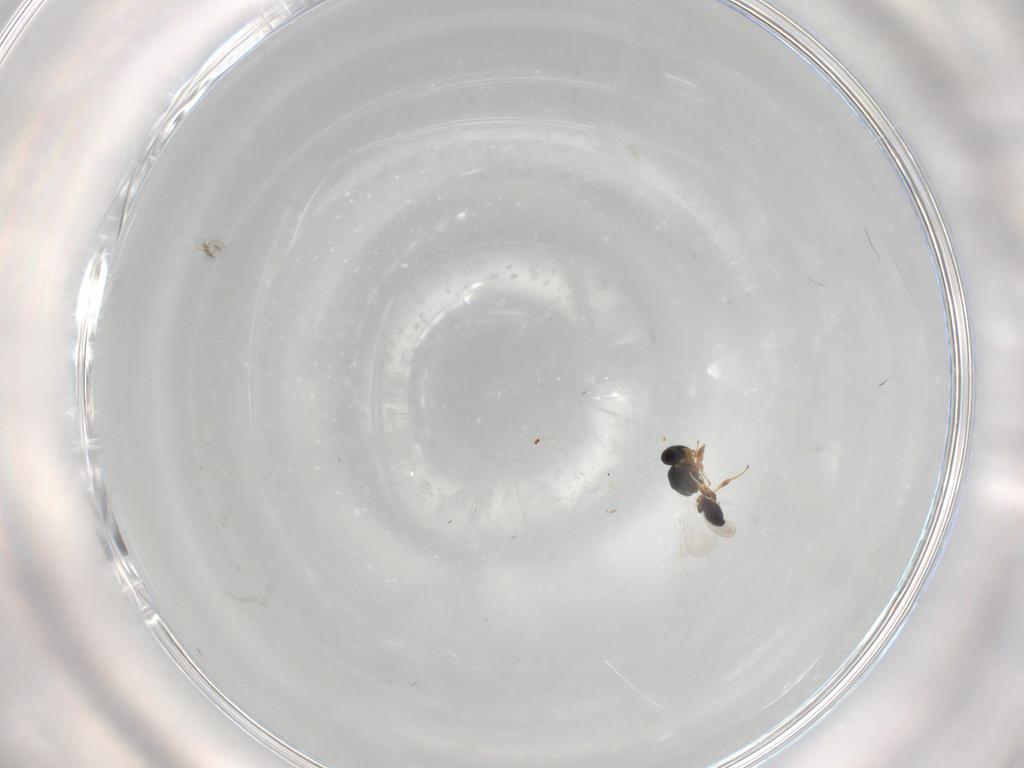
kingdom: Animalia
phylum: Arthropoda
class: Insecta
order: Hymenoptera
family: Platygastridae
